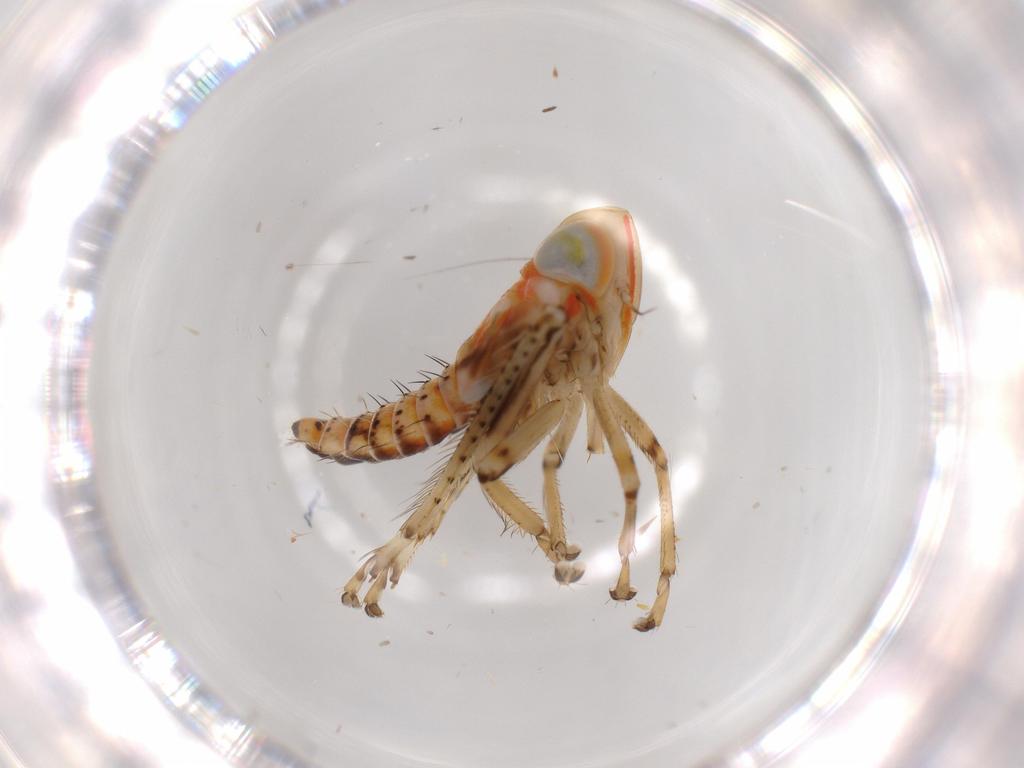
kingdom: Animalia
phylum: Arthropoda
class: Insecta
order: Hemiptera
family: Cicadellidae
